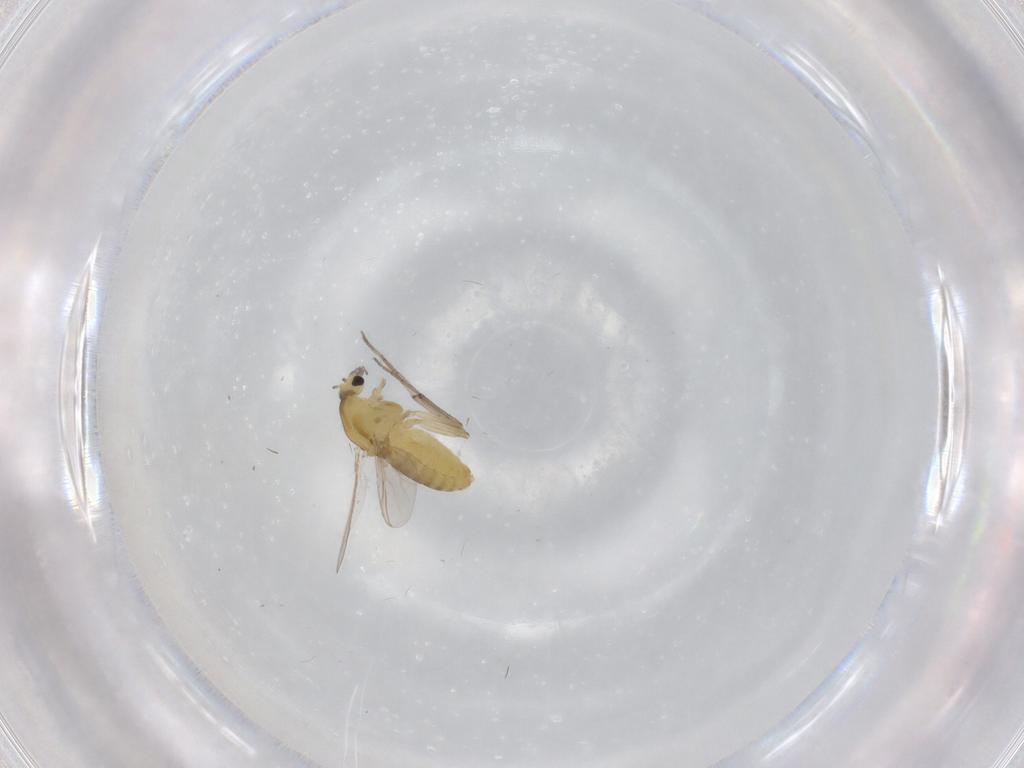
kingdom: Animalia
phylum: Arthropoda
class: Insecta
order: Diptera
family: Chironomidae
